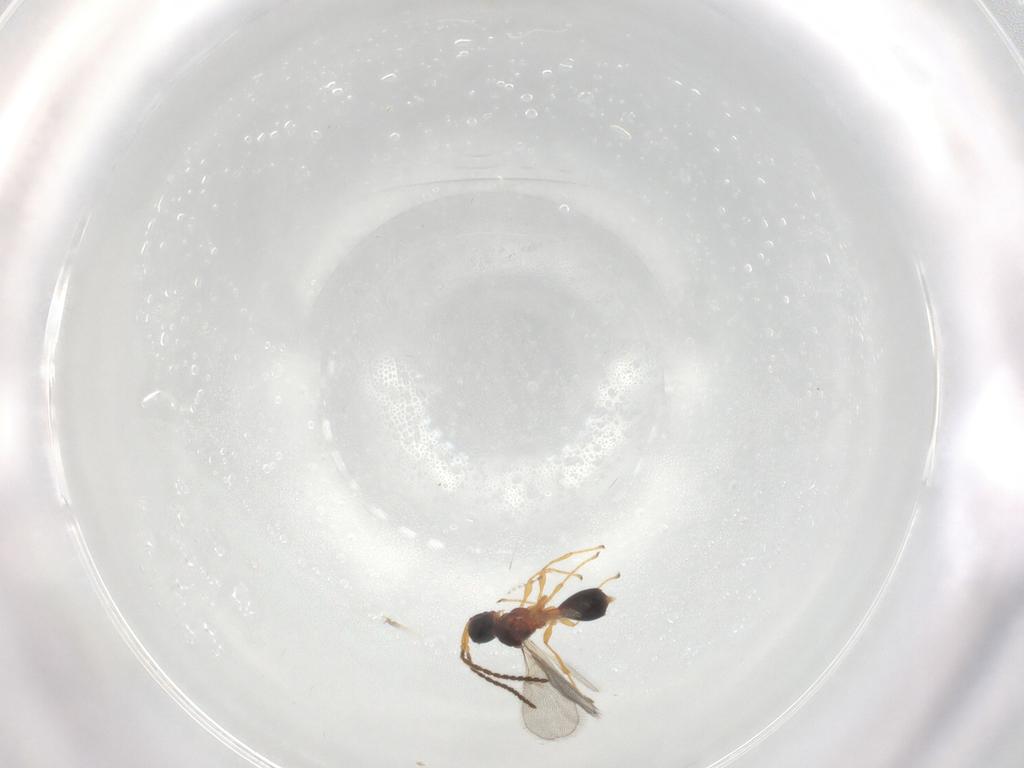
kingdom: Animalia
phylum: Arthropoda
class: Insecta
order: Hymenoptera
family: Diapriidae
